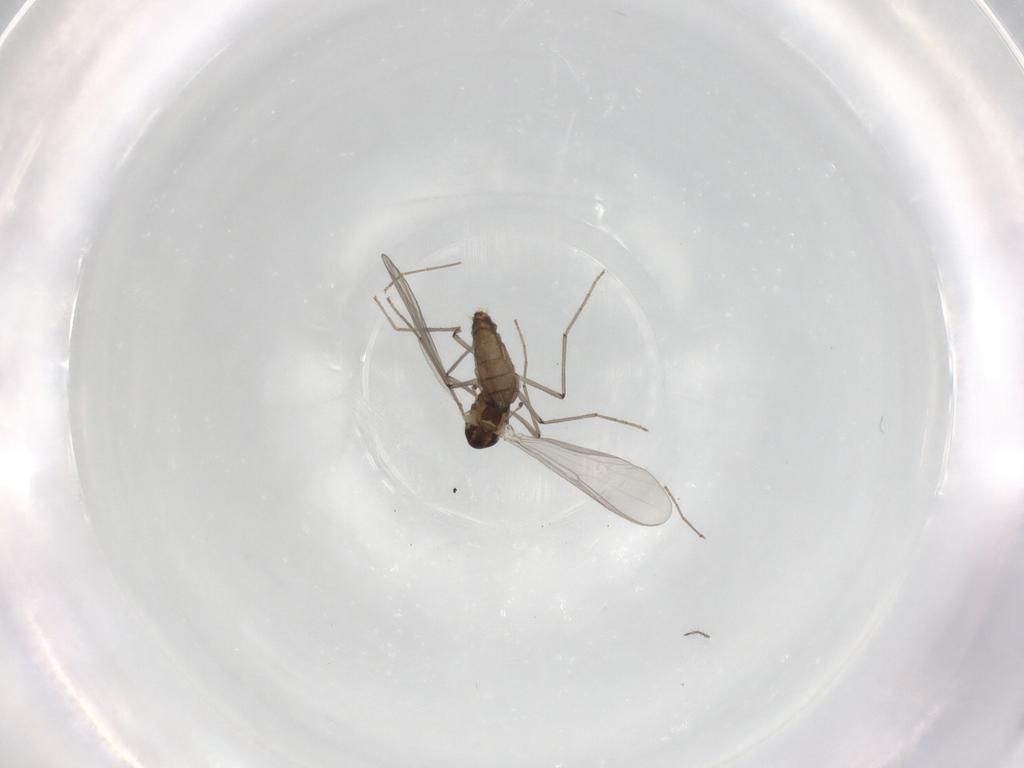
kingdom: Animalia
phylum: Arthropoda
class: Insecta
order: Diptera
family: Chironomidae
